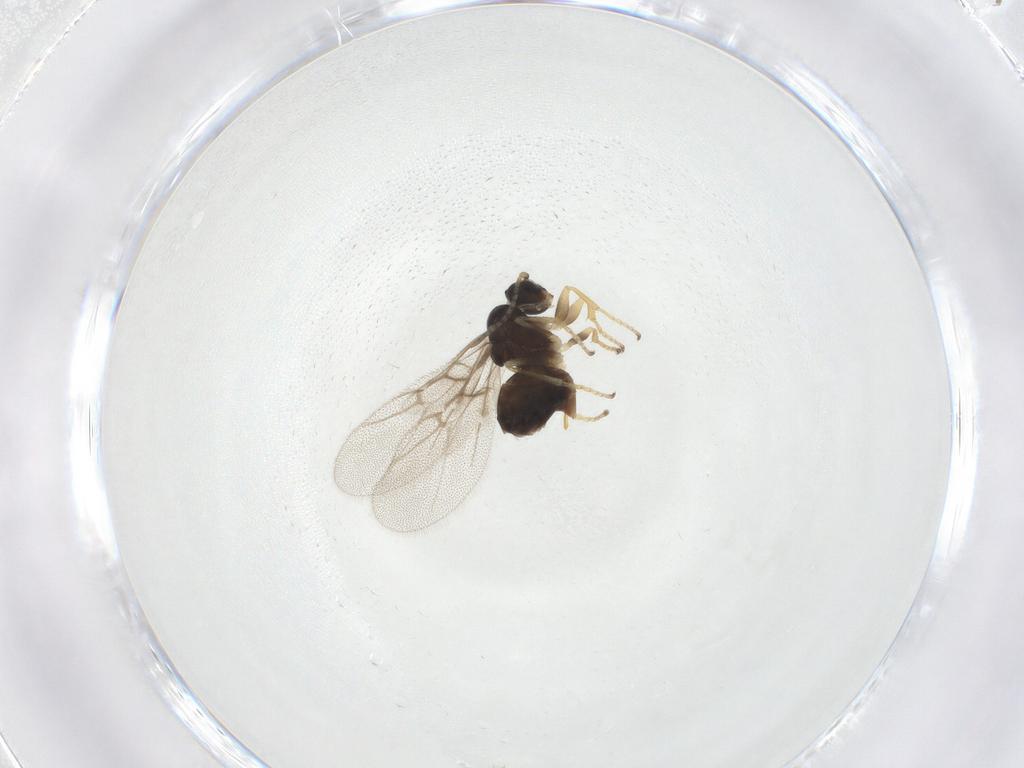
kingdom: Animalia
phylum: Arthropoda
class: Insecta
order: Hymenoptera
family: Cynipidae
